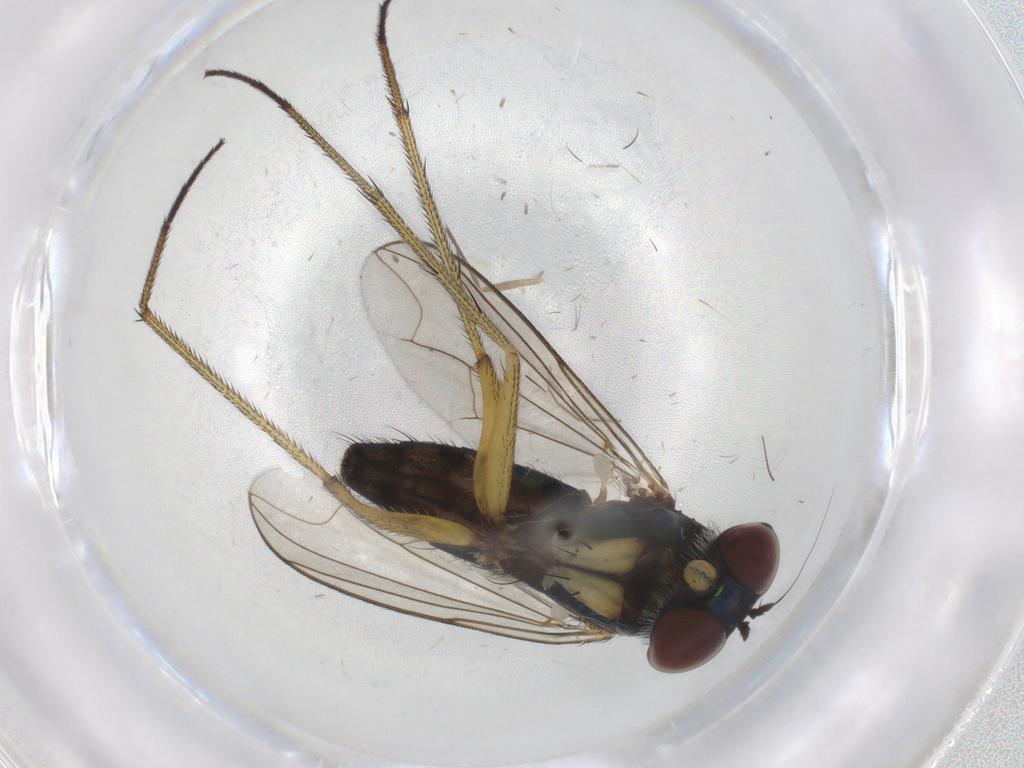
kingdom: Animalia
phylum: Arthropoda
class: Insecta
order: Diptera
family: Dolichopodidae
